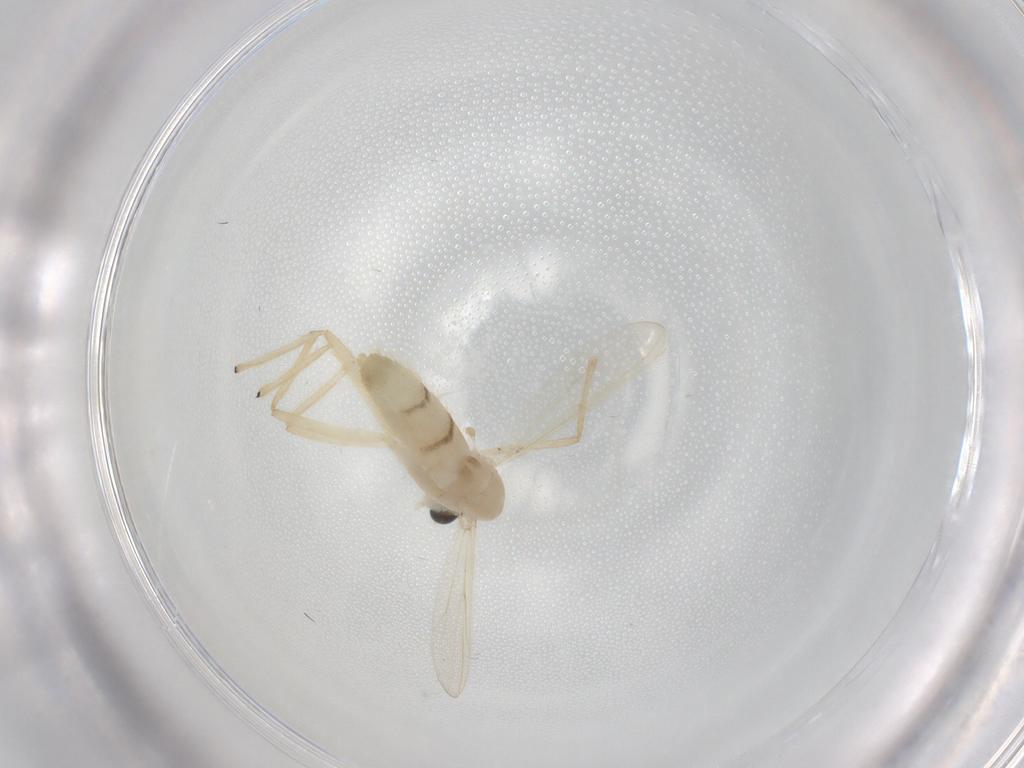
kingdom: Animalia
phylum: Arthropoda
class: Insecta
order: Diptera
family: Chironomidae
